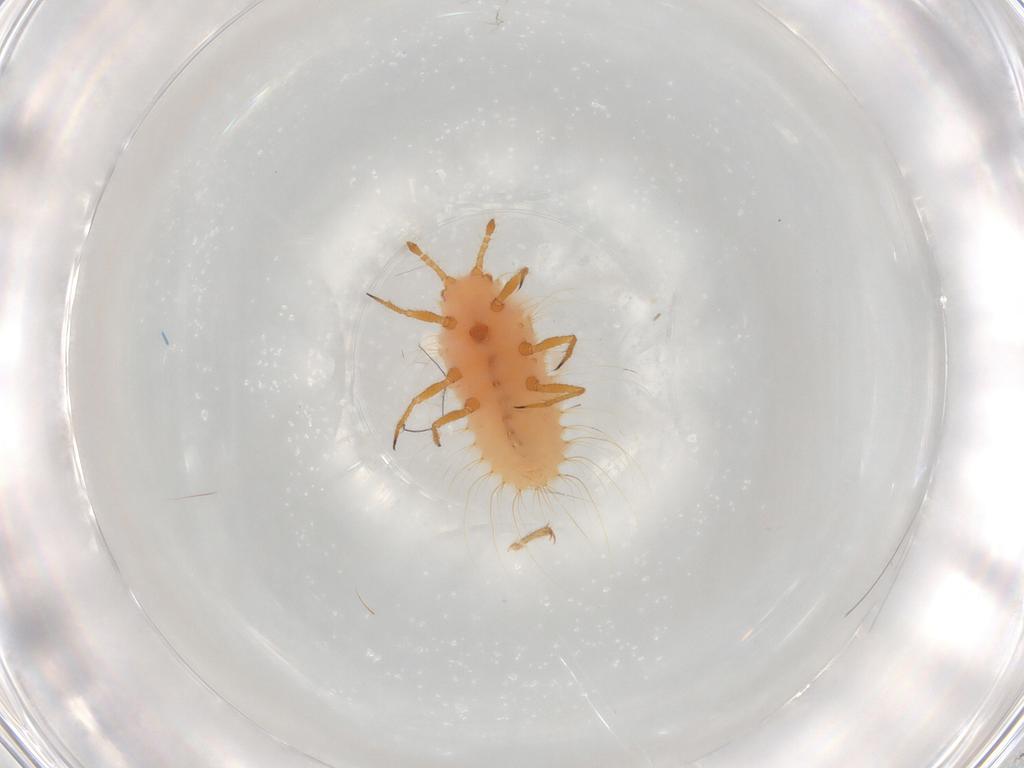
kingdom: Animalia
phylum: Arthropoda
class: Insecta
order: Hemiptera
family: Coccoidea_incertae_sedis
